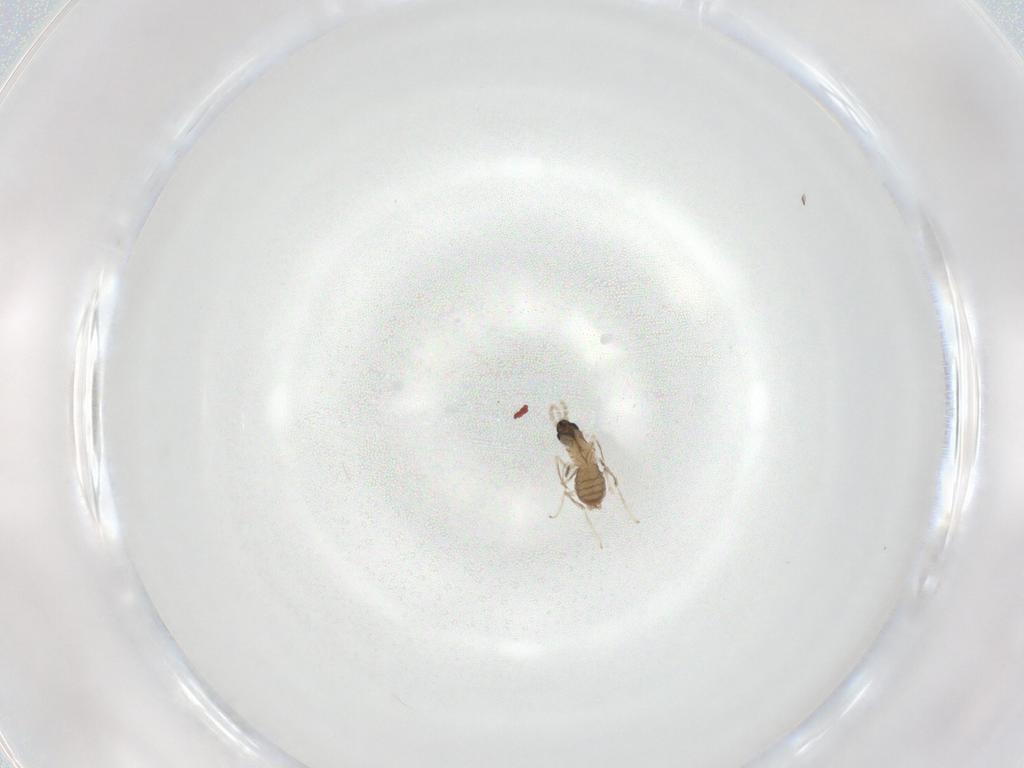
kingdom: Animalia
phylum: Arthropoda
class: Insecta
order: Diptera
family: Cecidomyiidae
